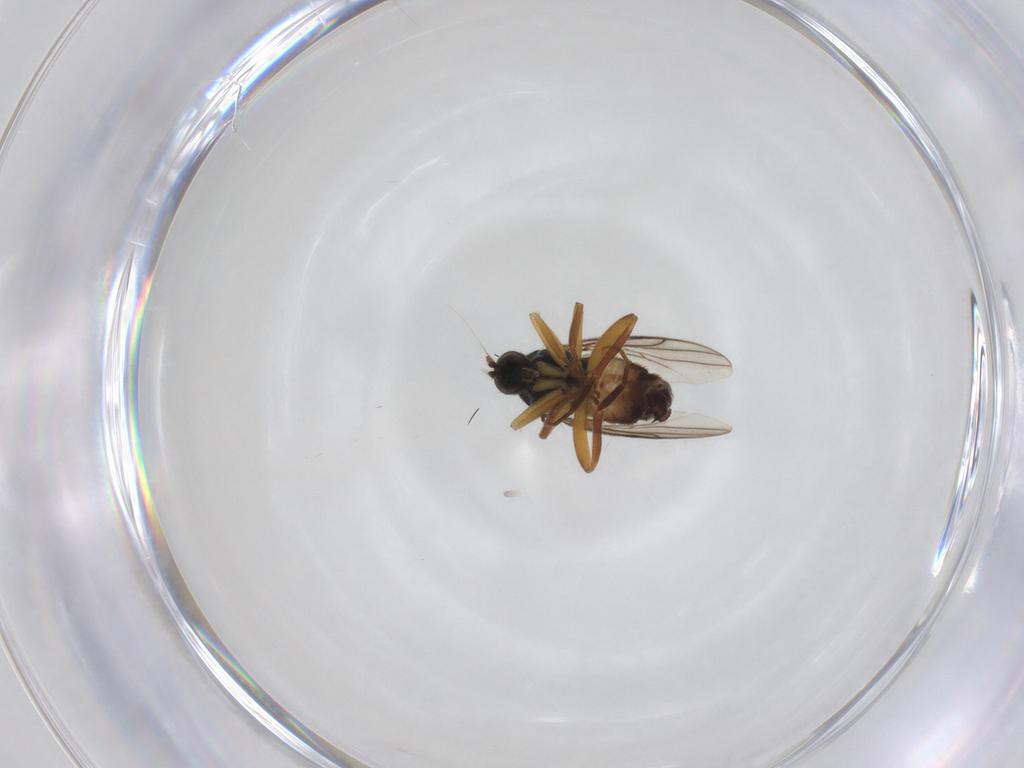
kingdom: Animalia
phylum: Arthropoda
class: Insecta
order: Diptera
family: Hybotidae
